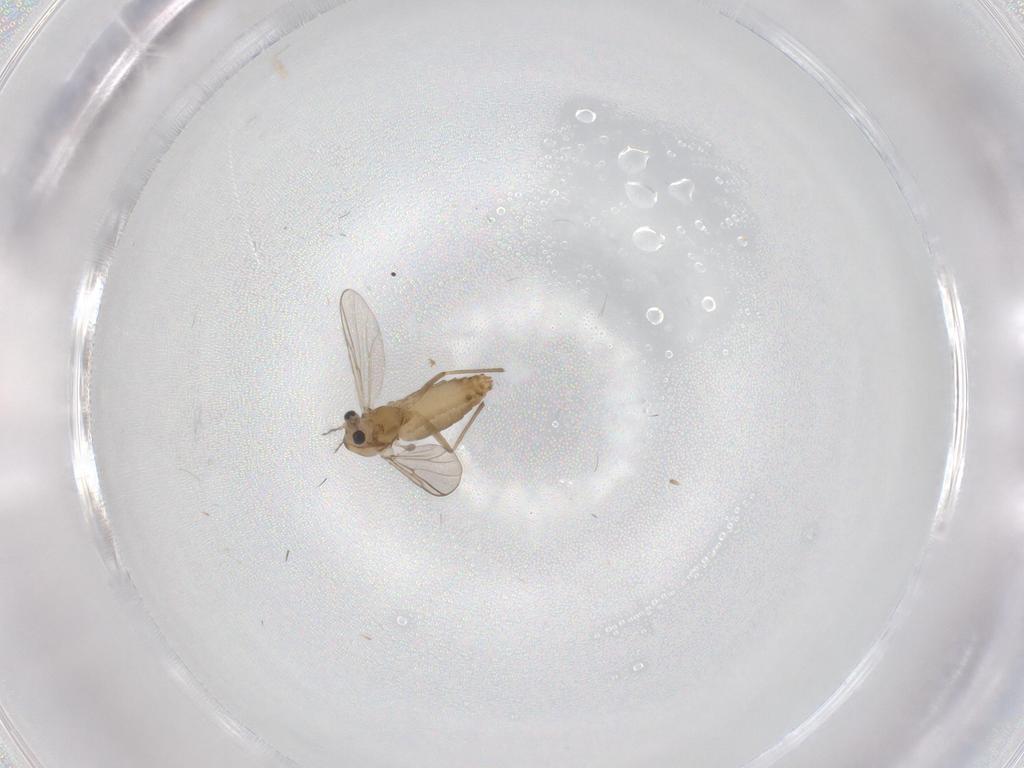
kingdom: Animalia
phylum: Arthropoda
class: Insecta
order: Diptera
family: Chironomidae
